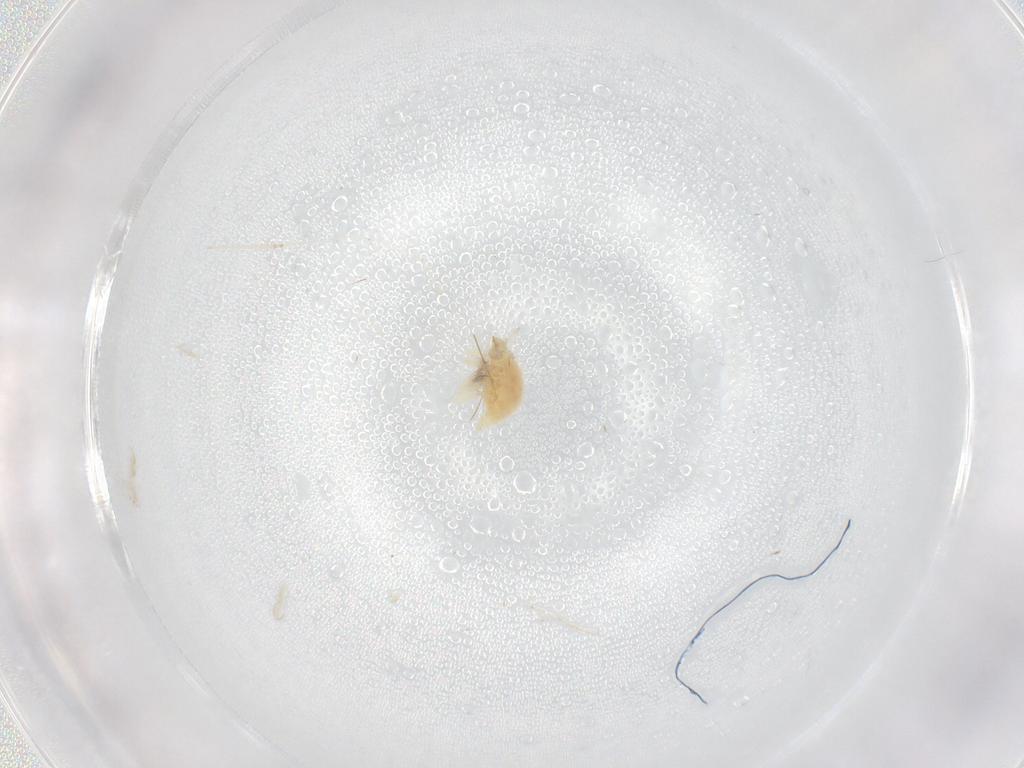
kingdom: Animalia
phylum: Arthropoda
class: Insecta
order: Neuroptera
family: Coniopterygidae
